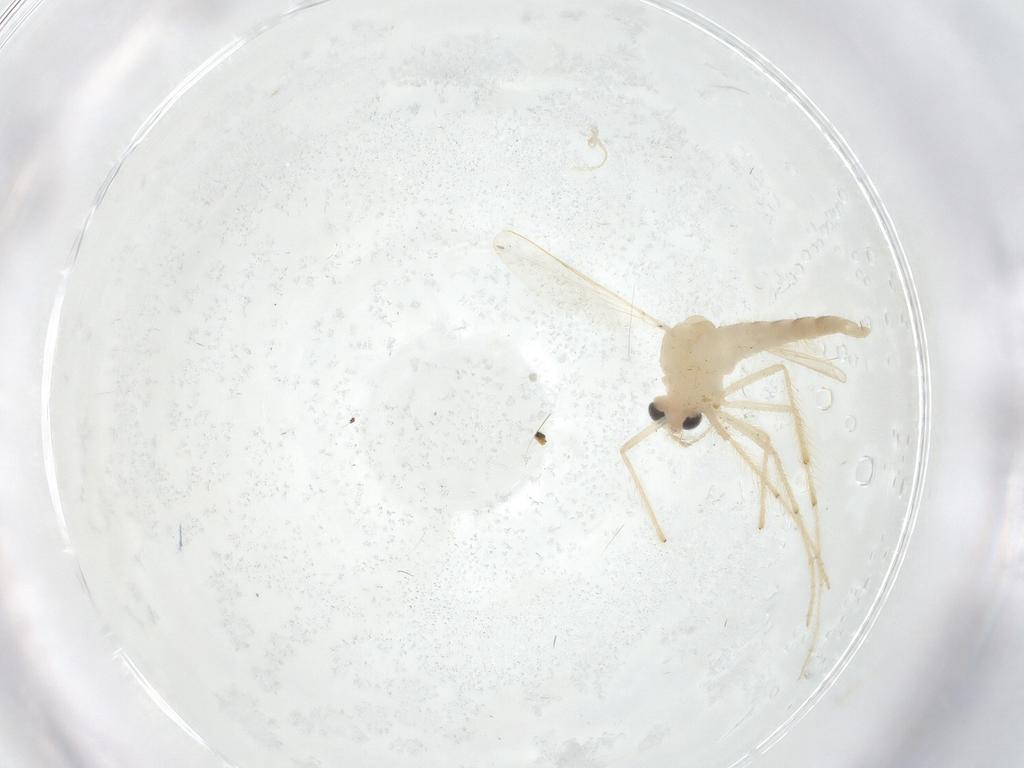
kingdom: Animalia
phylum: Arthropoda
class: Insecta
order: Diptera
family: Chironomidae
